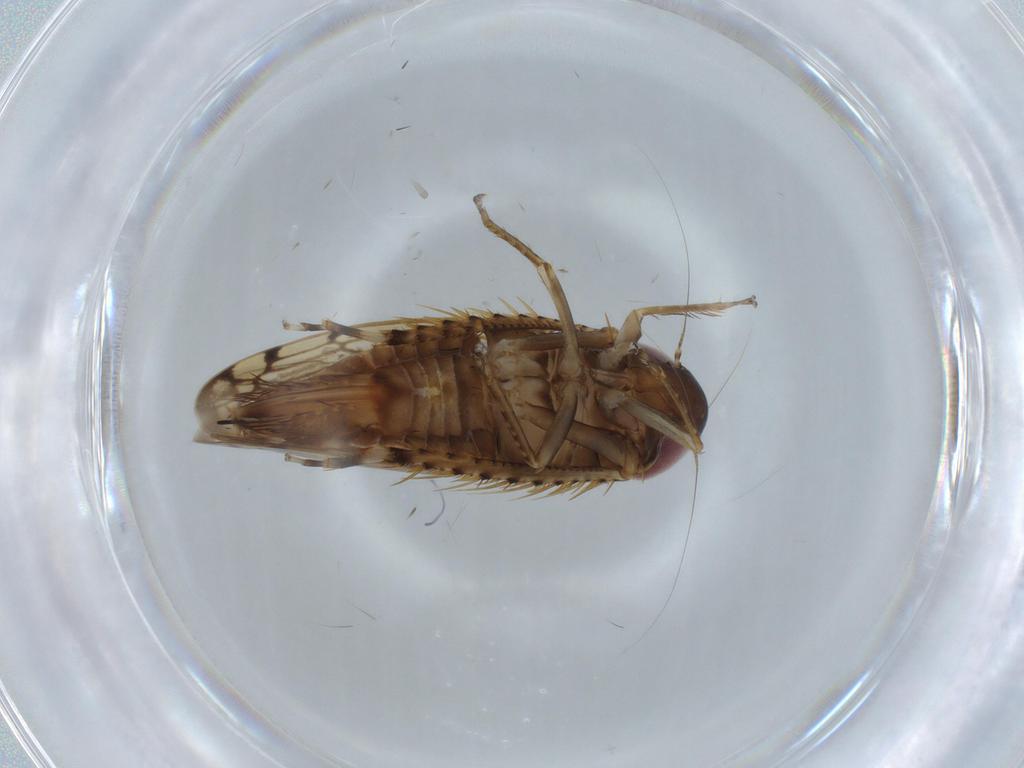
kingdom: Animalia
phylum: Arthropoda
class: Insecta
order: Hemiptera
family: Cicadellidae
